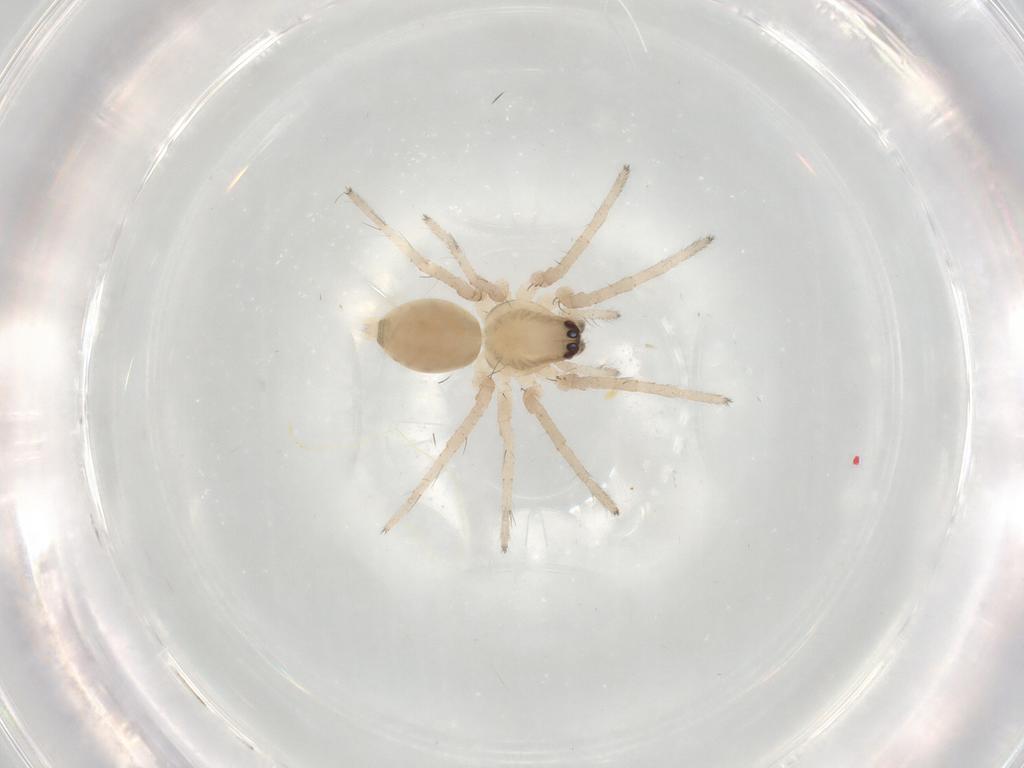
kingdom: Animalia
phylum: Arthropoda
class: Arachnida
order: Araneae
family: Anyphaenidae
